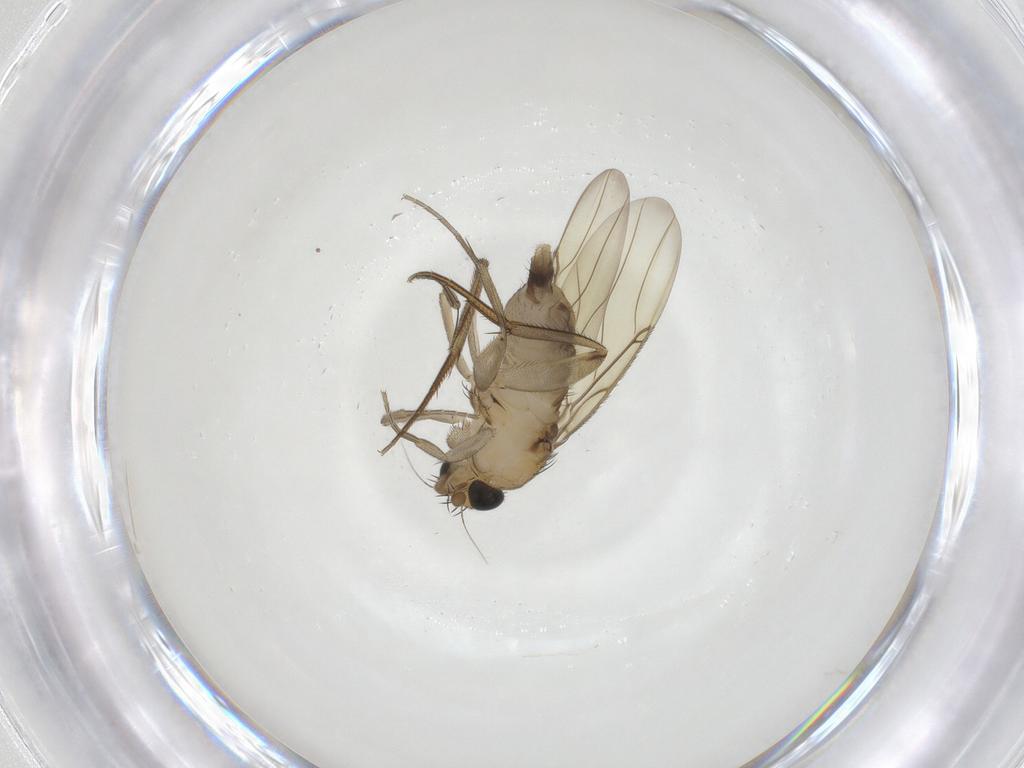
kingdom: Animalia
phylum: Arthropoda
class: Insecta
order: Diptera
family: Phoridae
